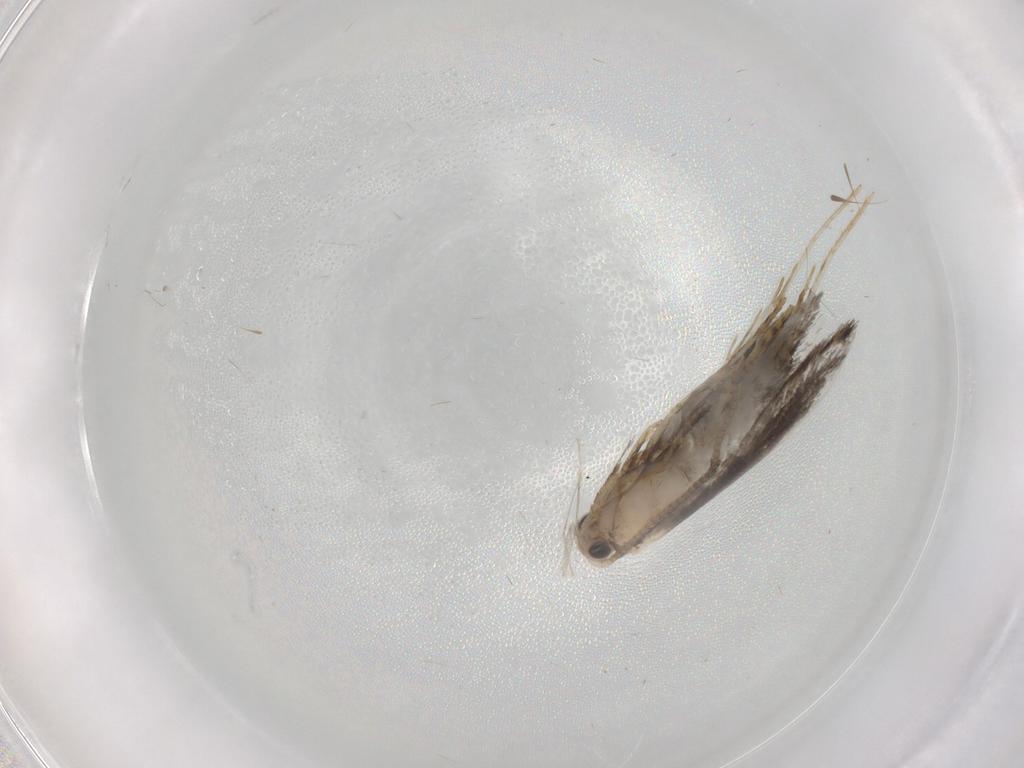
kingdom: Animalia
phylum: Arthropoda
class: Insecta
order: Lepidoptera
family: Tineidae
